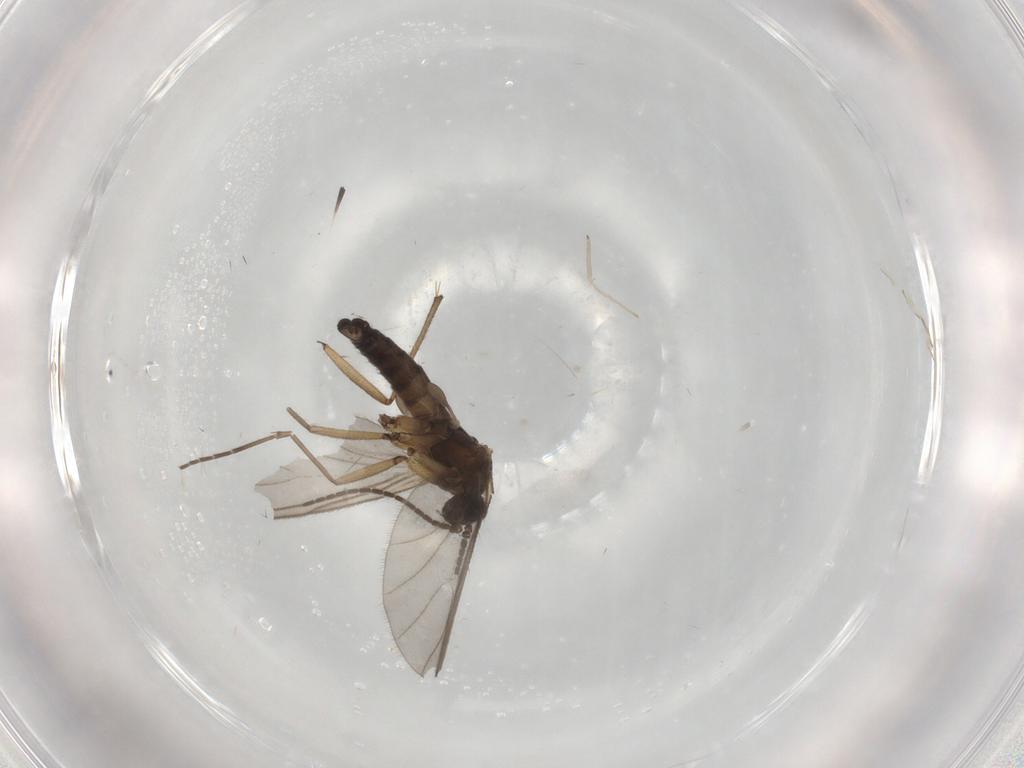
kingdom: Animalia
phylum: Arthropoda
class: Insecta
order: Diptera
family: Sciaridae
